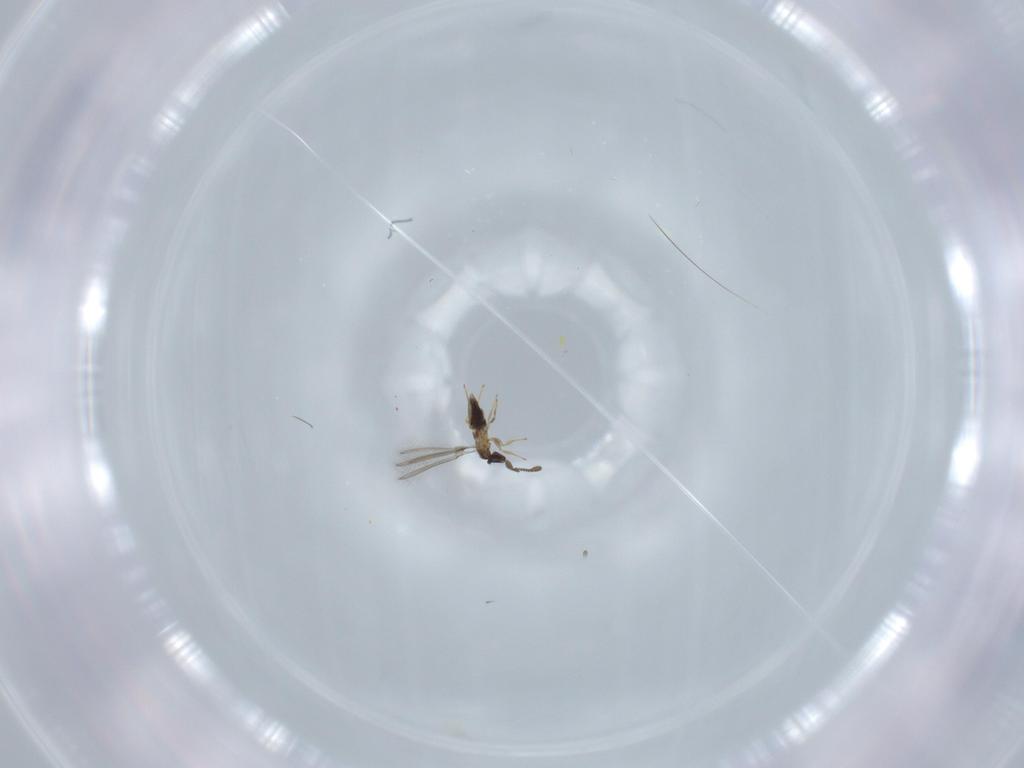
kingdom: Animalia
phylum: Arthropoda
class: Insecta
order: Hymenoptera
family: Mymaridae
